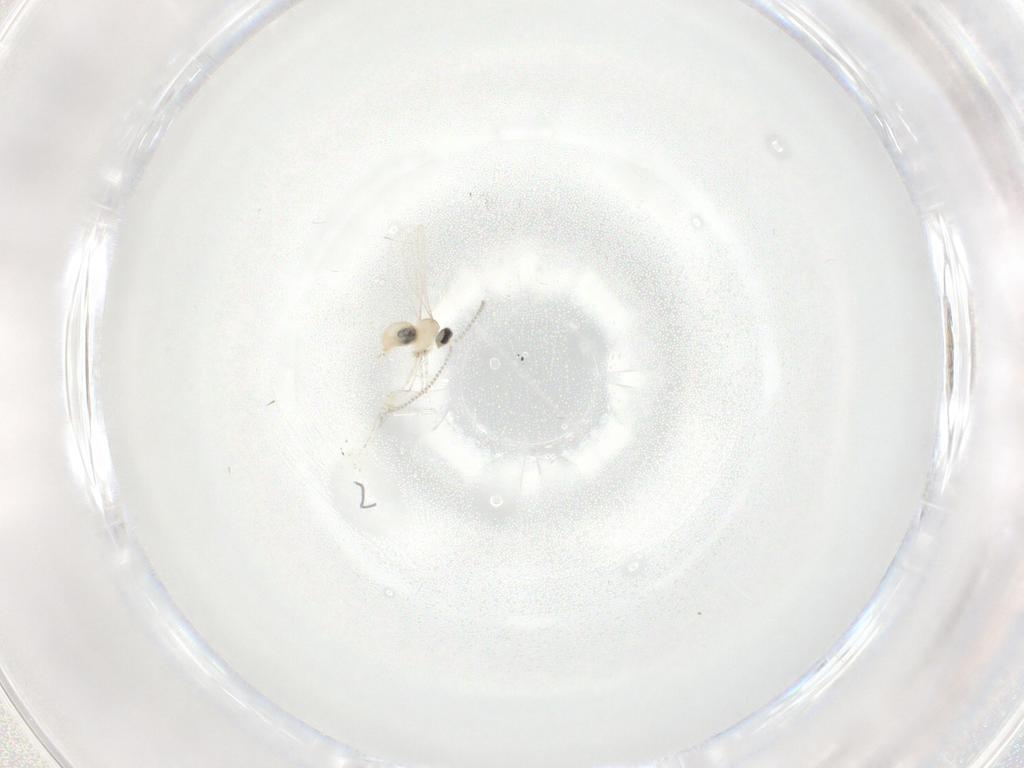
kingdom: Animalia
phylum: Arthropoda
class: Insecta
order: Diptera
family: Cecidomyiidae
